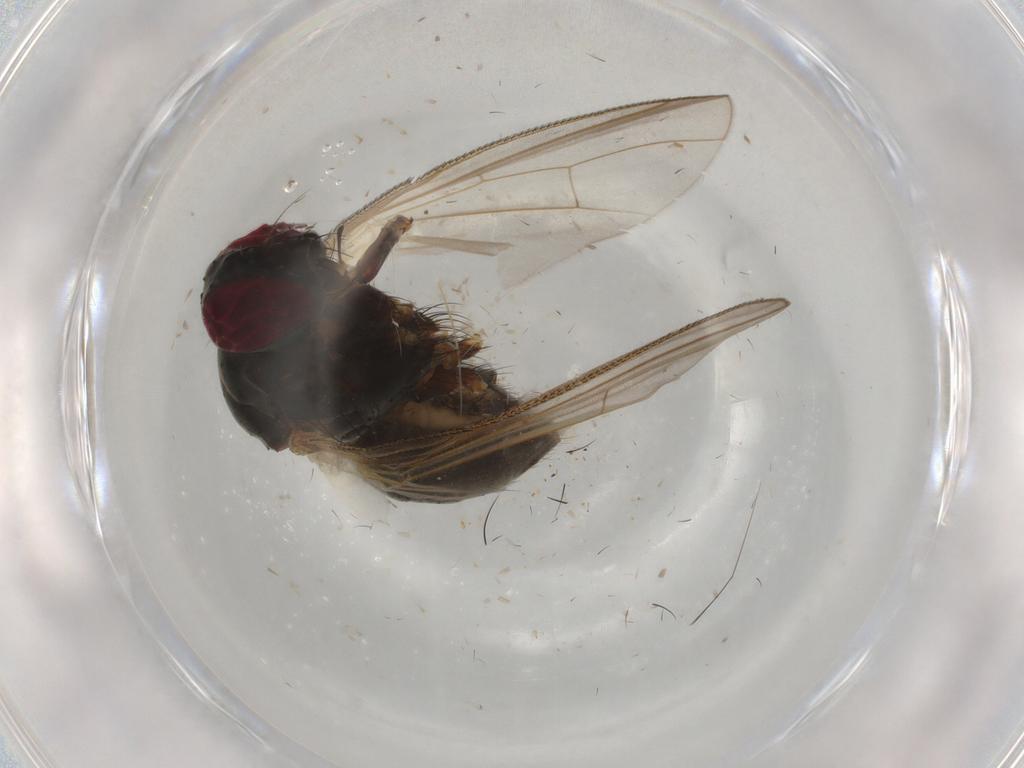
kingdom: Animalia
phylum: Arthropoda
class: Insecta
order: Diptera
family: Muscidae
